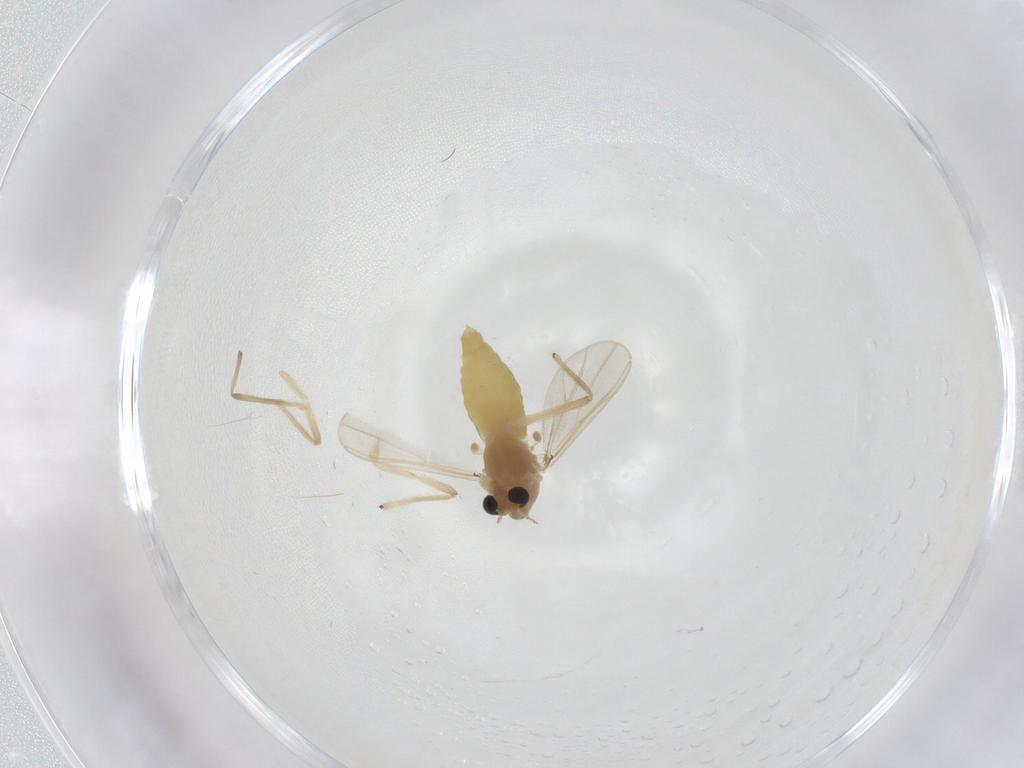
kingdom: Animalia
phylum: Arthropoda
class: Insecta
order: Diptera
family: Chironomidae
